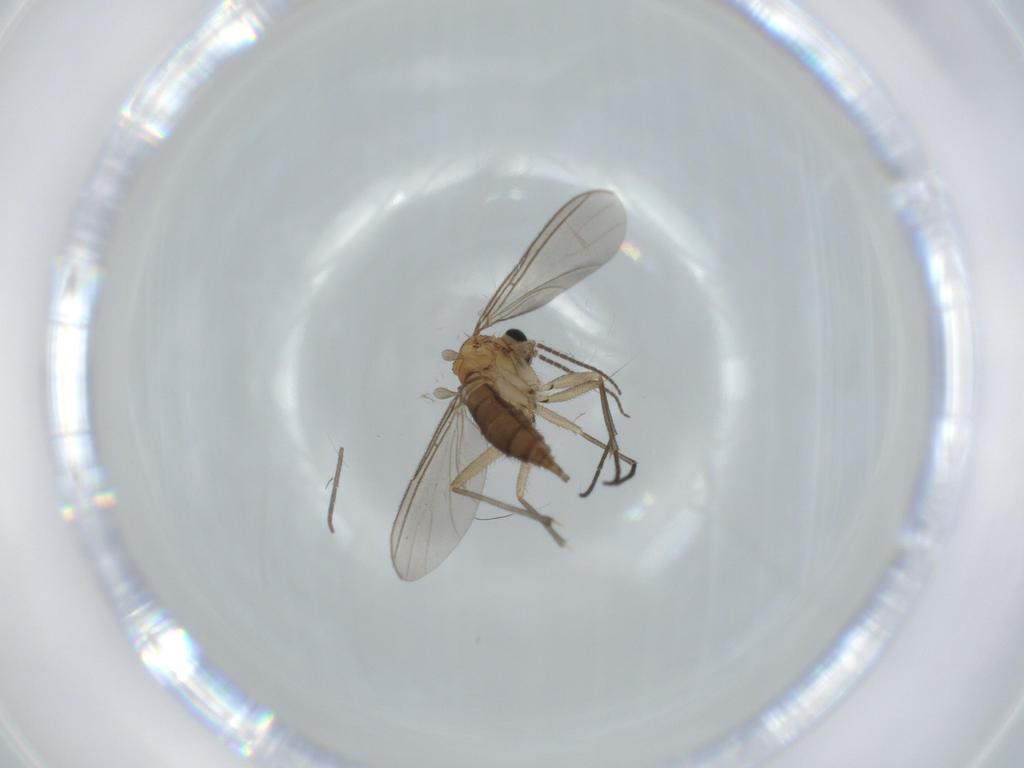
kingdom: Animalia
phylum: Arthropoda
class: Insecta
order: Diptera
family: Sciaridae
